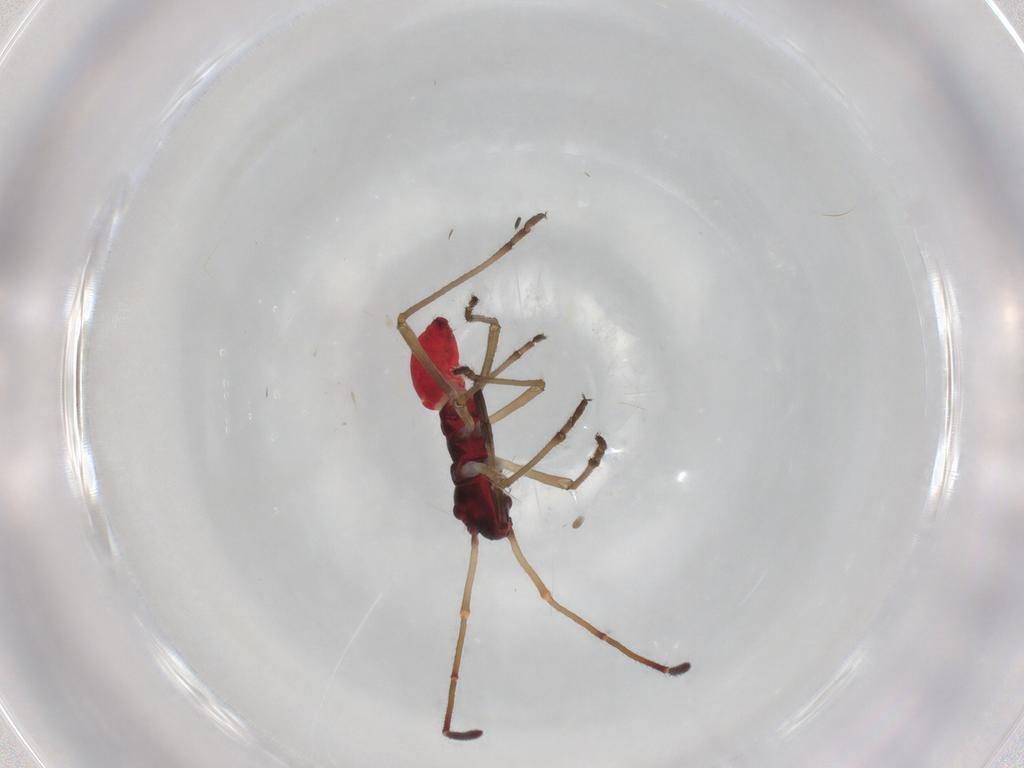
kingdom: Animalia
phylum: Arthropoda
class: Insecta
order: Hemiptera
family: Alydidae
